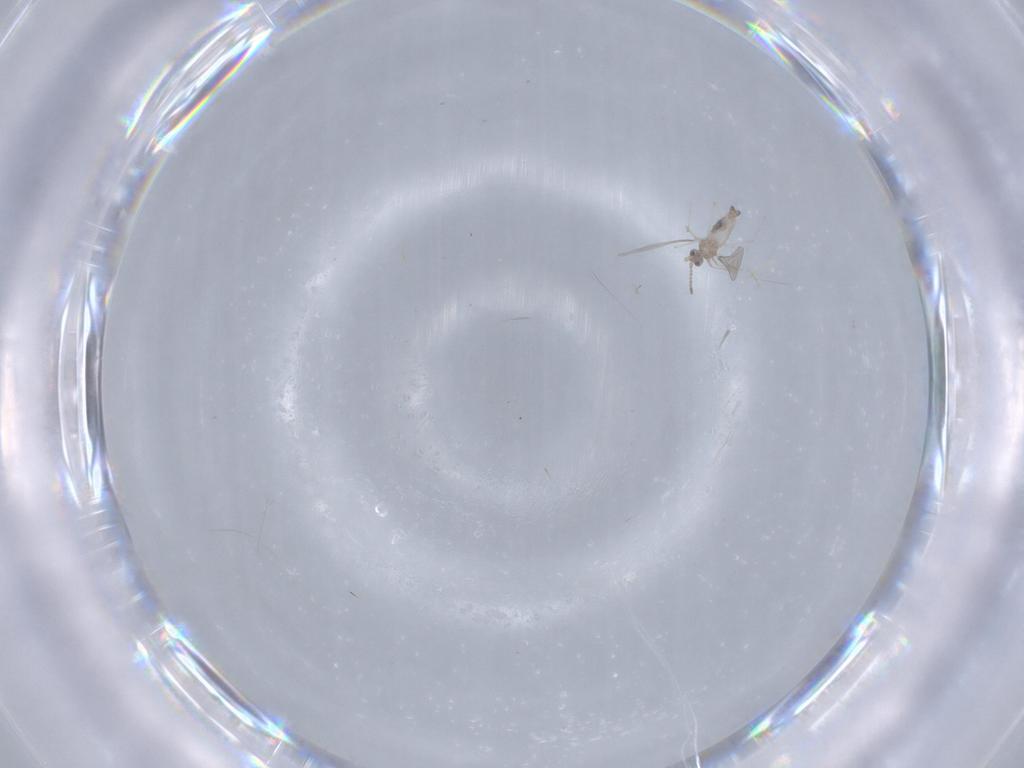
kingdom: Animalia
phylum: Arthropoda
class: Insecta
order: Diptera
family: Cecidomyiidae
